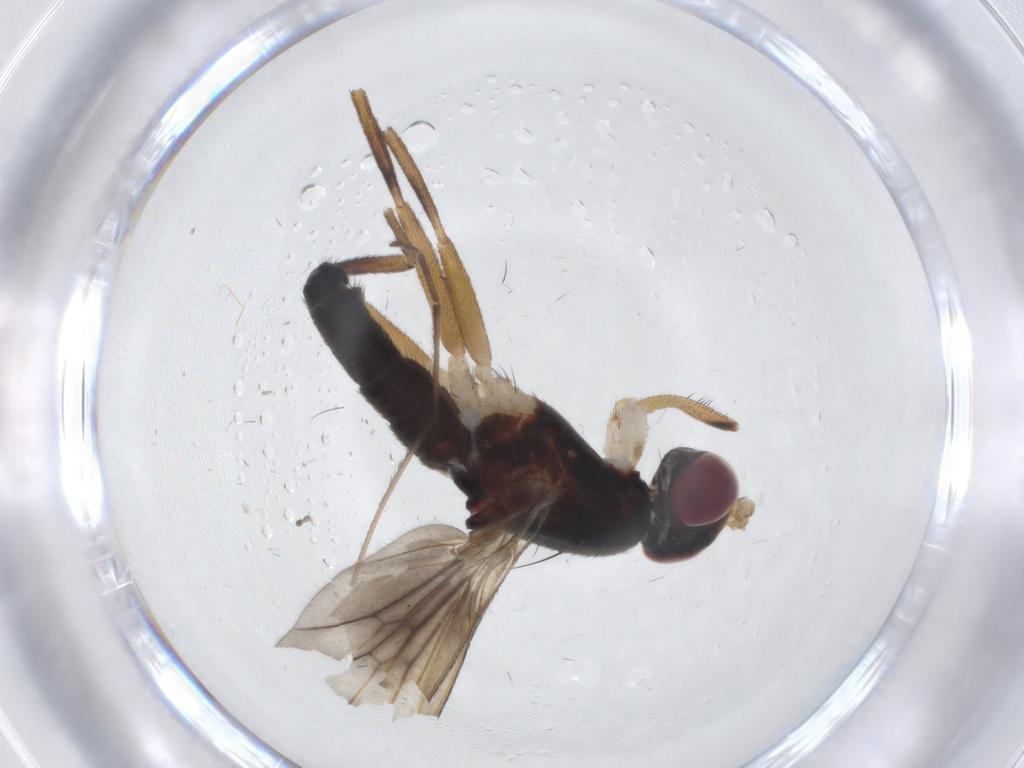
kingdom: Animalia
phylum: Arthropoda
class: Insecta
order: Diptera
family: Clusiidae
